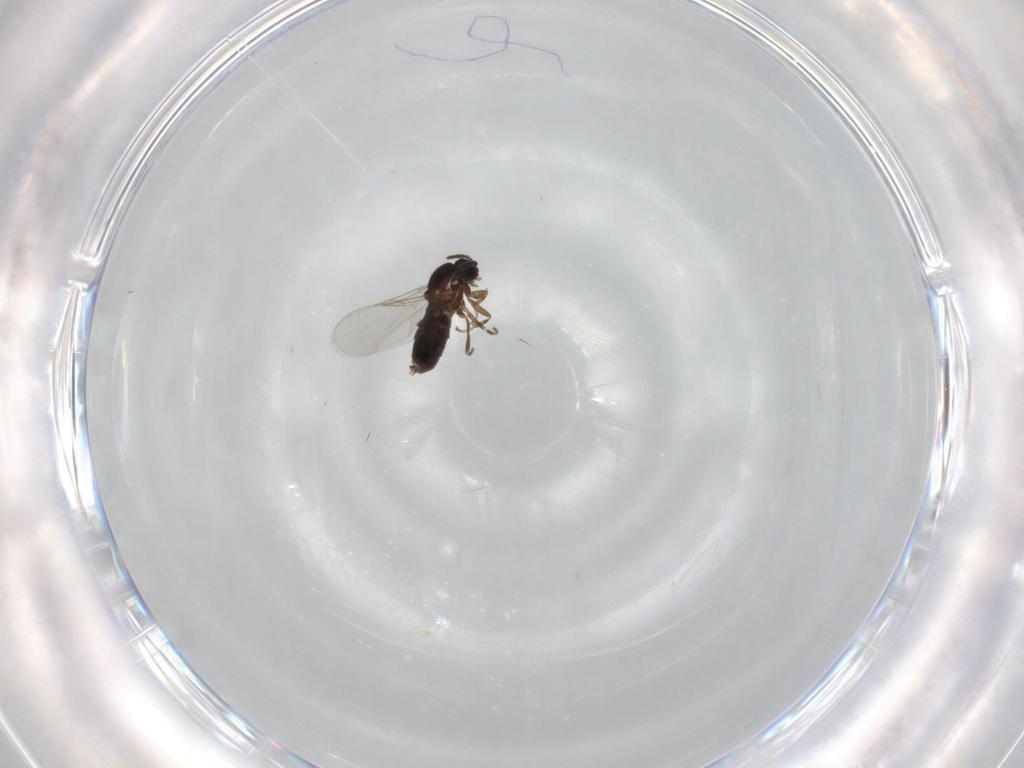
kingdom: Animalia
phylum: Arthropoda
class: Insecta
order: Diptera
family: Scatopsidae
